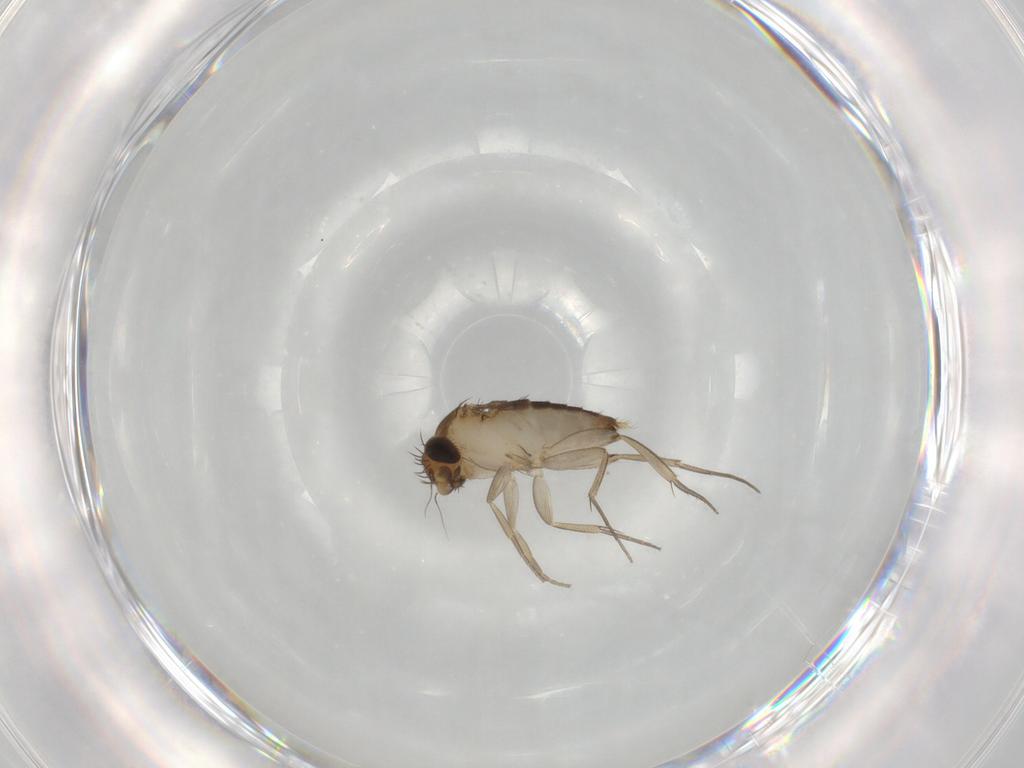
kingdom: Animalia
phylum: Arthropoda
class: Insecta
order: Diptera
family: Phoridae
